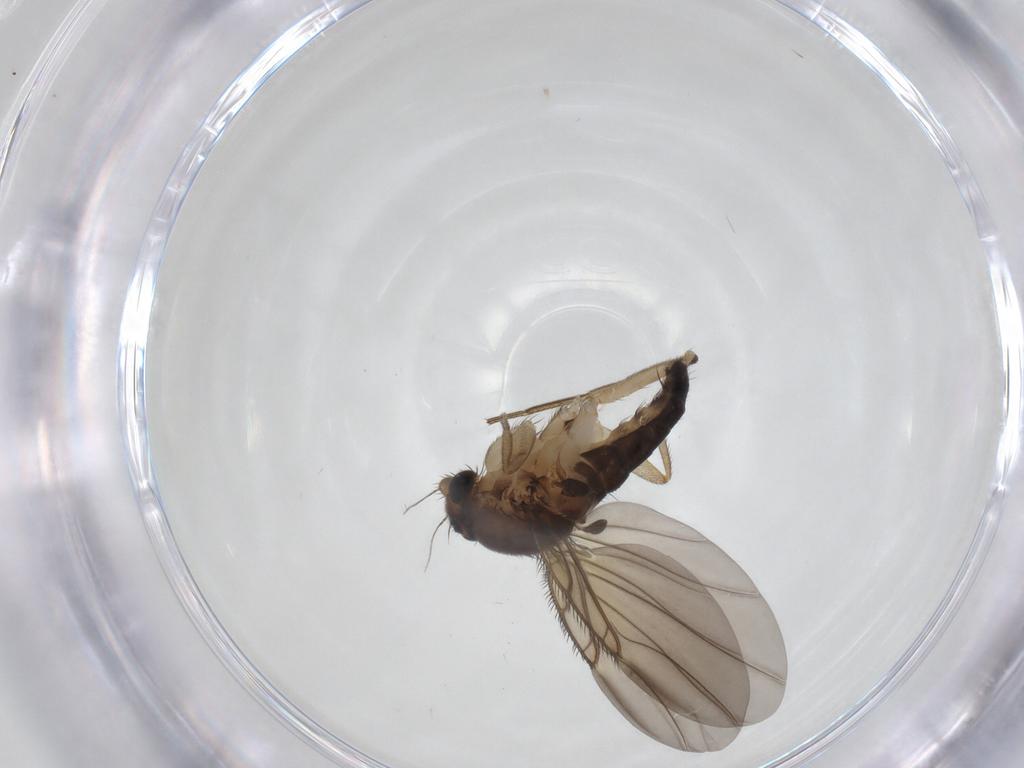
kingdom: Animalia
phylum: Arthropoda
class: Insecta
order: Diptera
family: Phoridae
